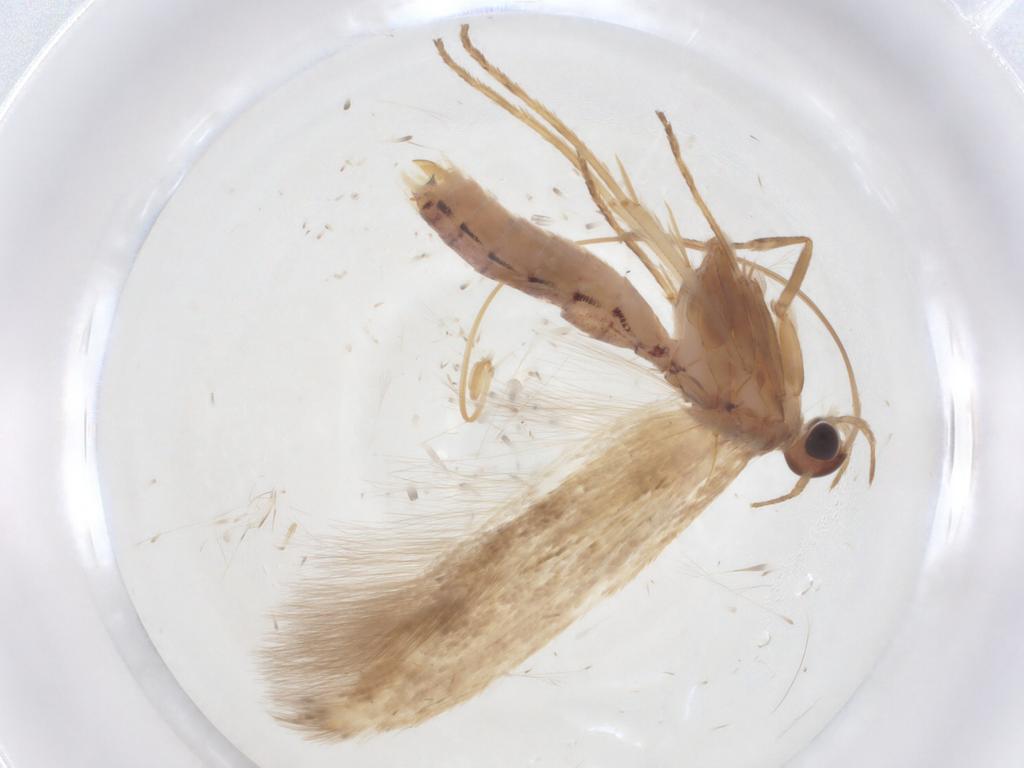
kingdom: Animalia
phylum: Arthropoda
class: Insecta
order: Lepidoptera
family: Scythrididae
